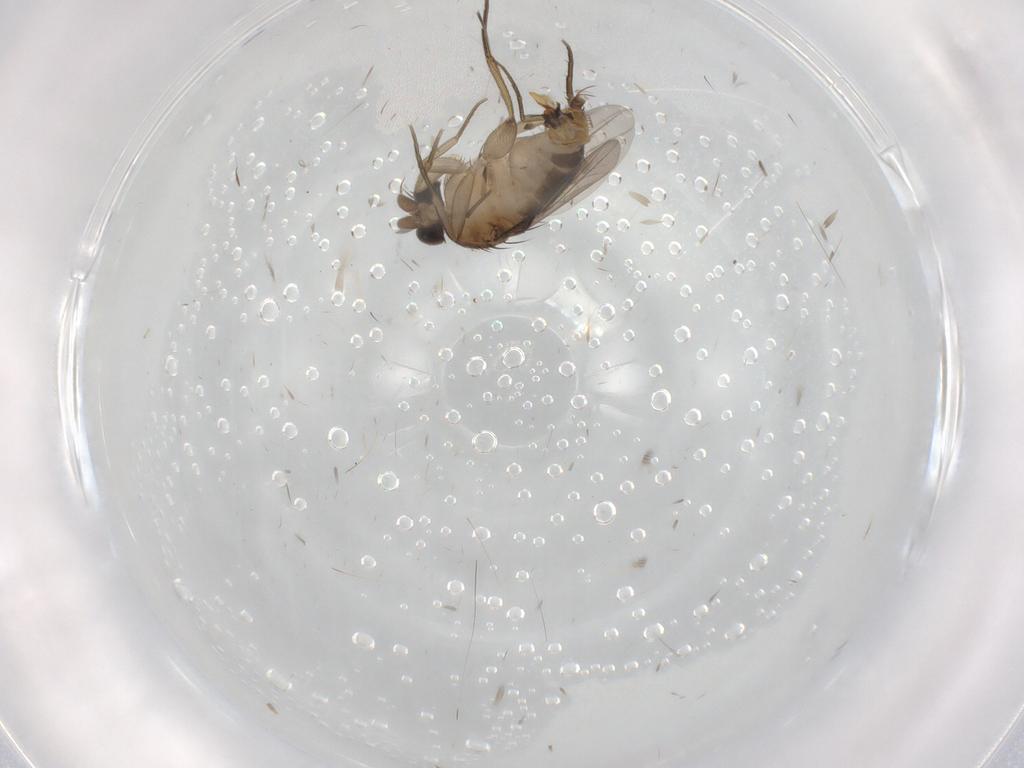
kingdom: Animalia
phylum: Arthropoda
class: Insecta
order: Diptera
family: Phoridae
